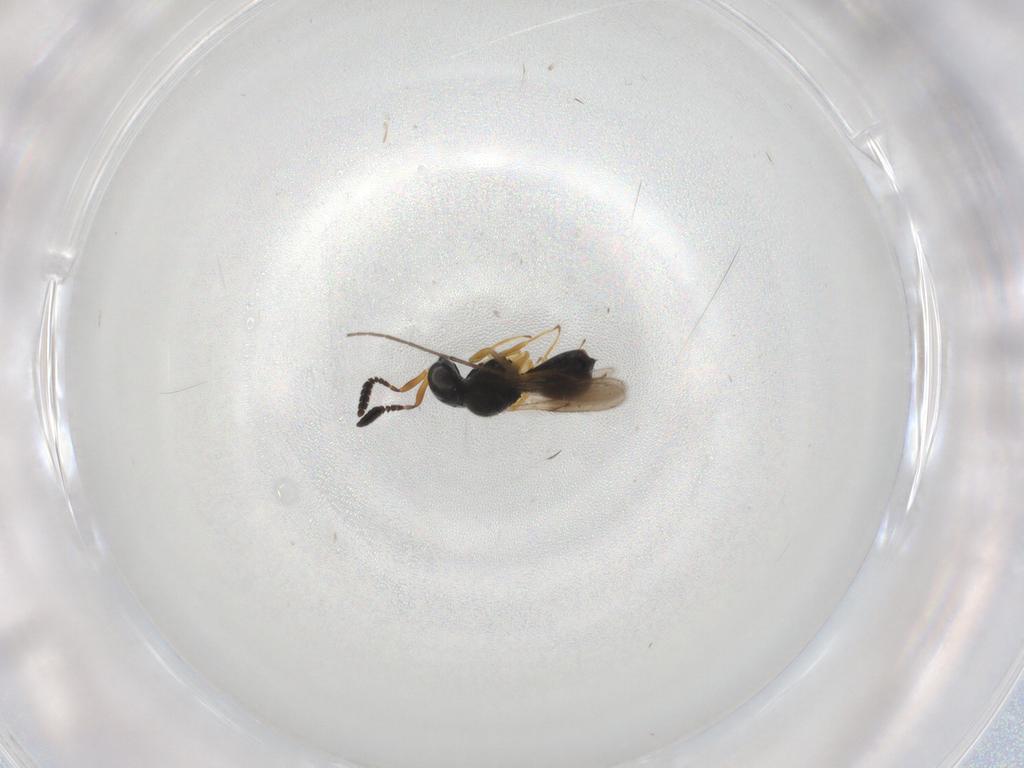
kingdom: Animalia
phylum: Arthropoda
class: Insecta
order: Hymenoptera
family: Scelionidae
